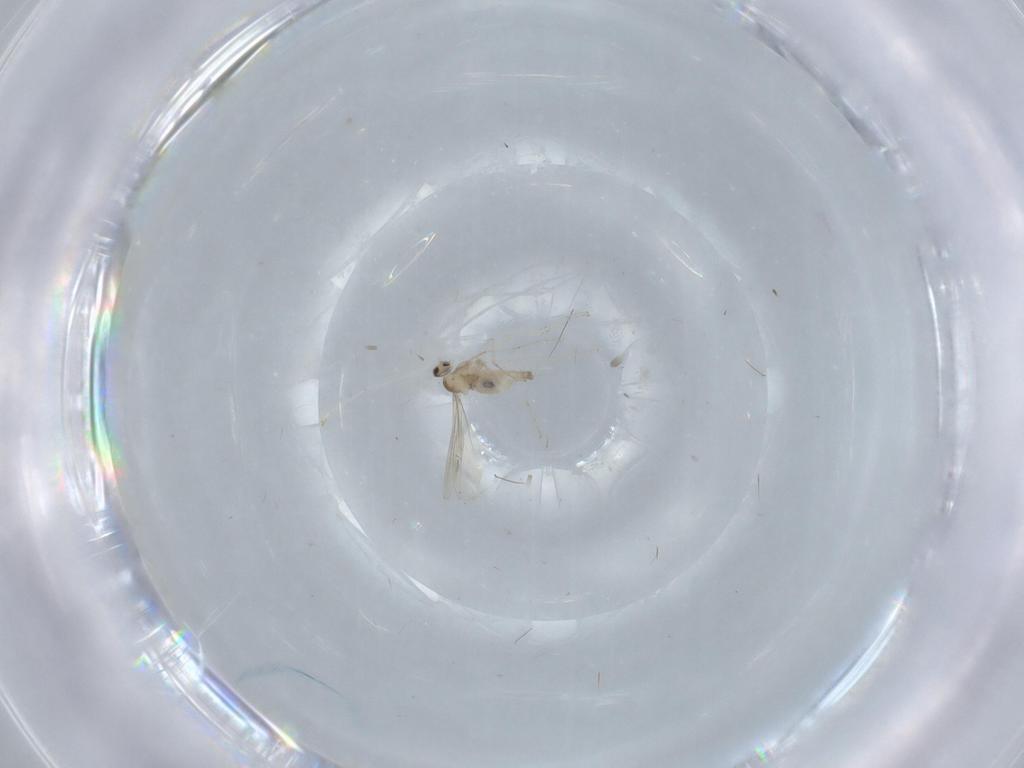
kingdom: Animalia
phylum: Arthropoda
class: Insecta
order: Diptera
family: Cecidomyiidae
